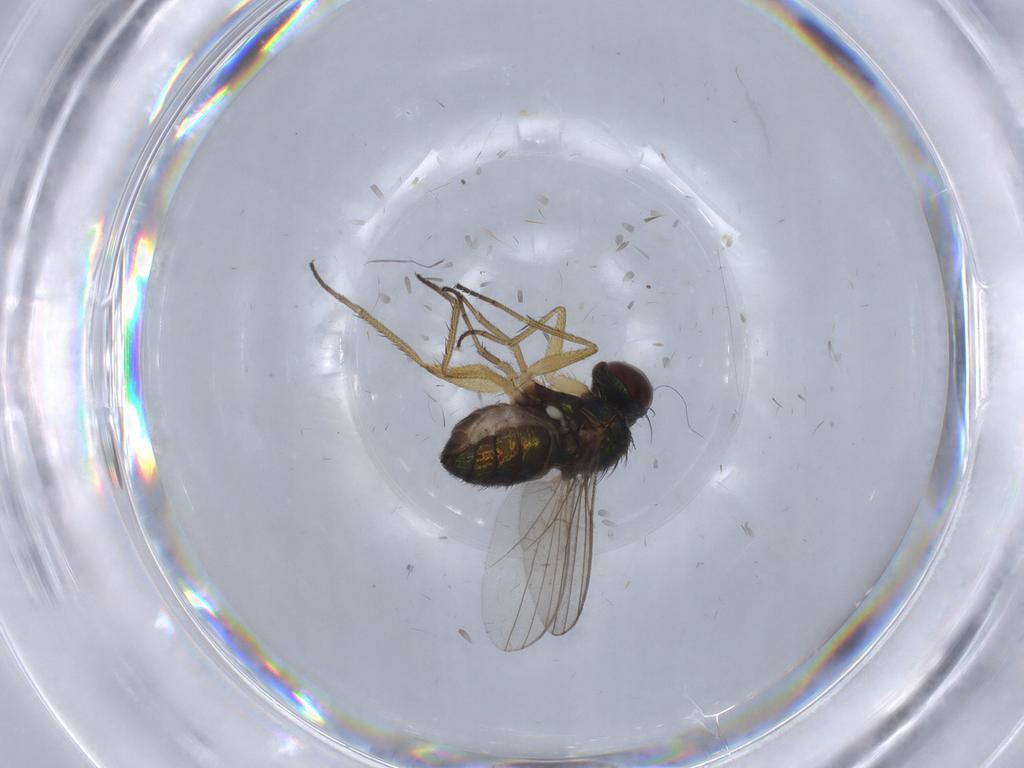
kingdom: Animalia
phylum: Arthropoda
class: Insecta
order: Diptera
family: Dolichopodidae
